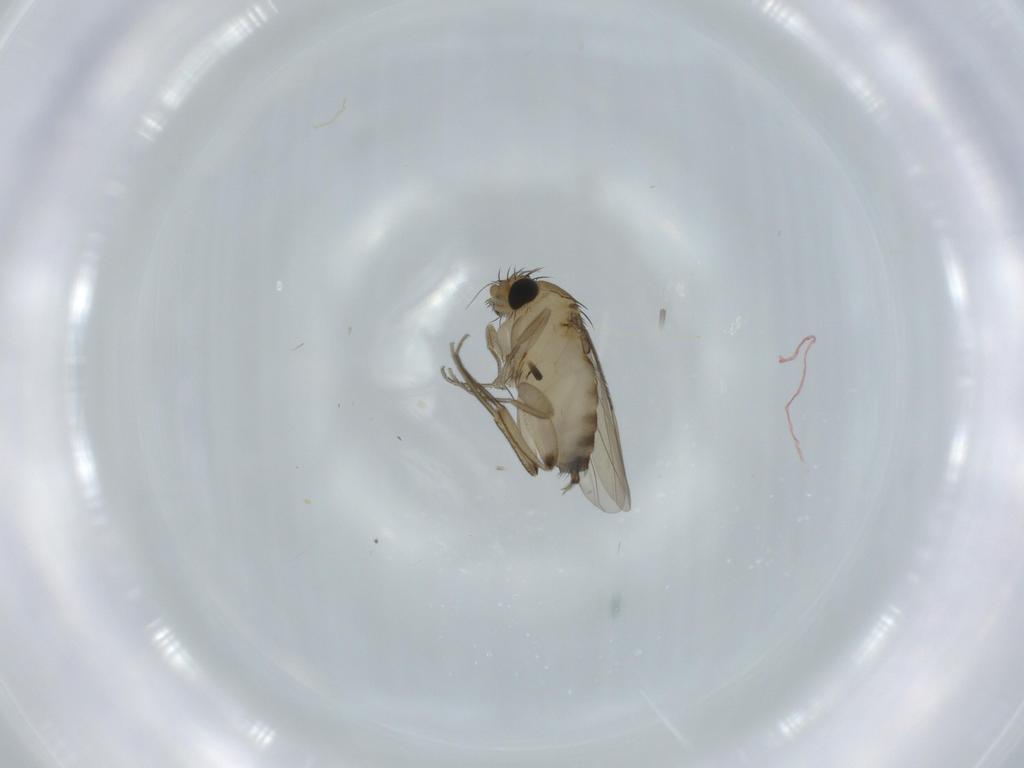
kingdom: Animalia
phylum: Arthropoda
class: Insecta
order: Diptera
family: Phoridae
